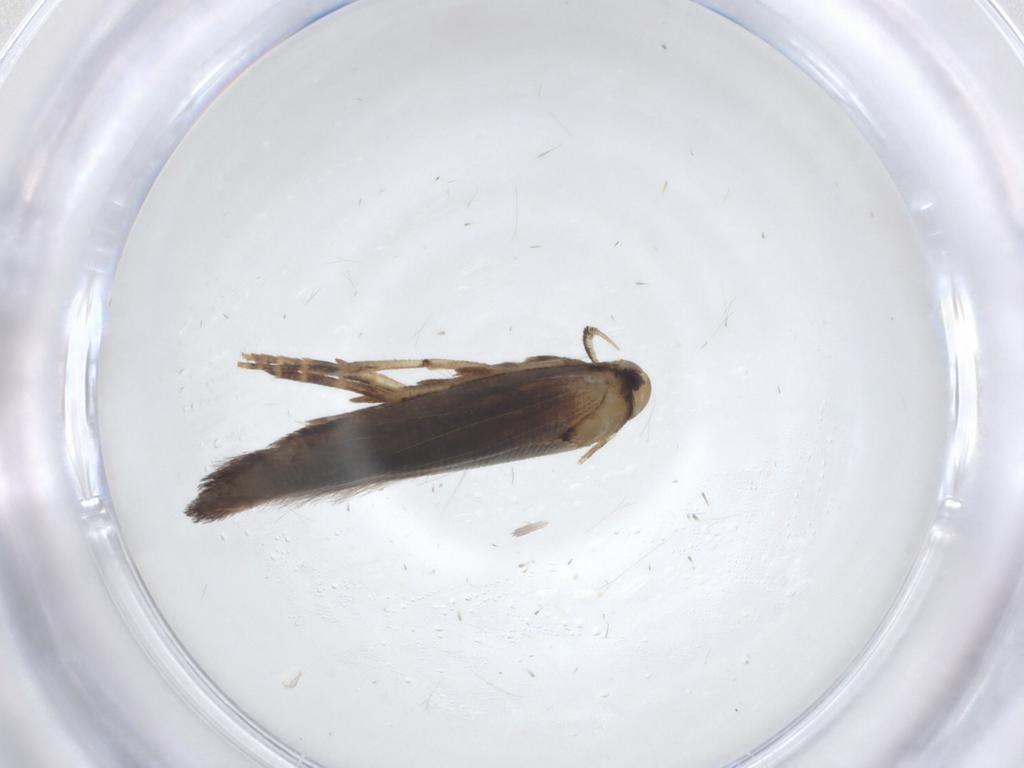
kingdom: Animalia
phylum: Arthropoda
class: Insecta
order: Lepidoptera
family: Cosmopterigidae
